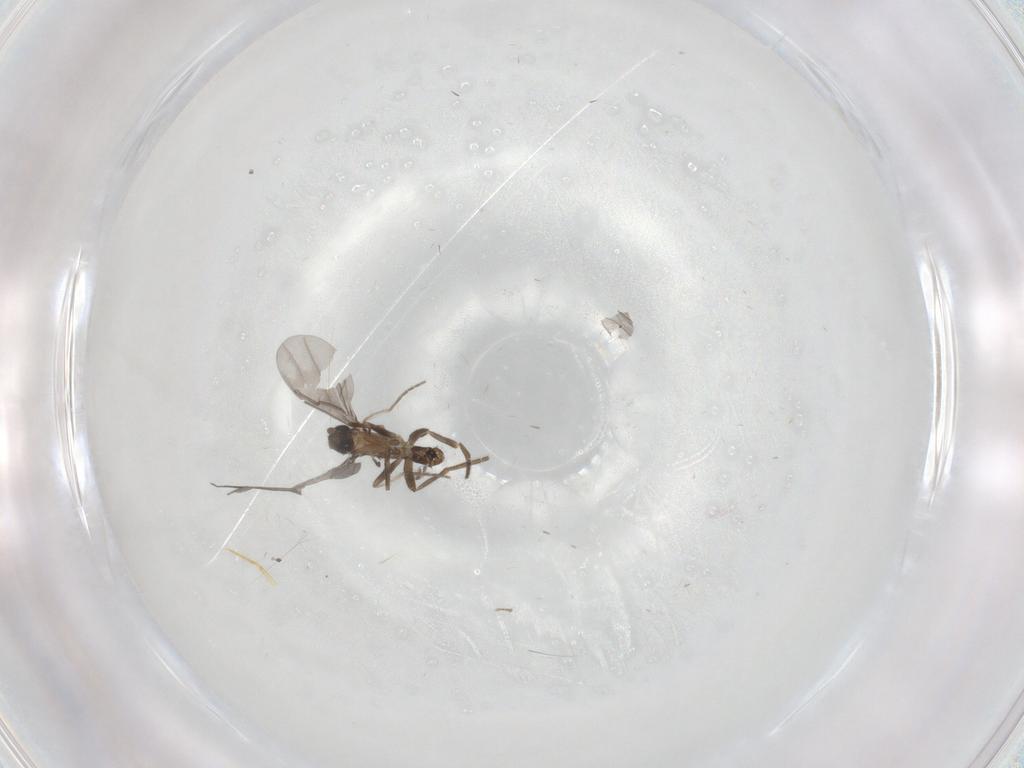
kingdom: Animalia
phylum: Arthropoda
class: Insecta
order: Diptera
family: Phoridae
